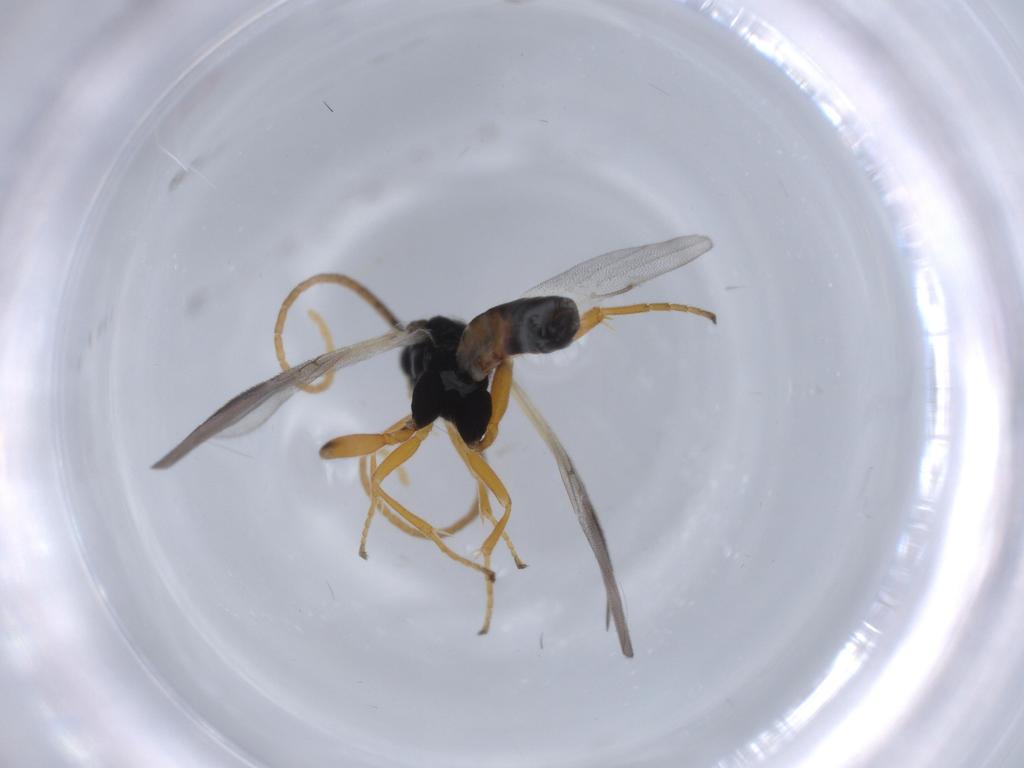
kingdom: Animalia
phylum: Arthropoda
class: Insecta
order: Hymenoptera
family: Braconidae
